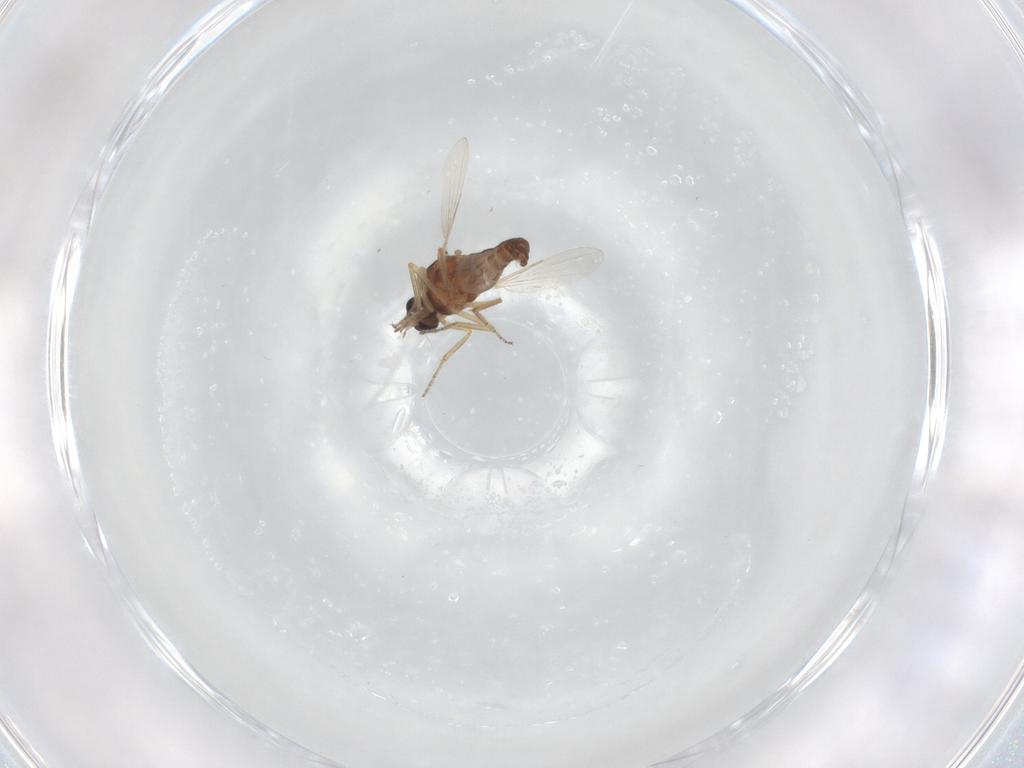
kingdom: Animalia
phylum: Arthropoda
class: Insecta
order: Diptera
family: Ceratopogonidae
